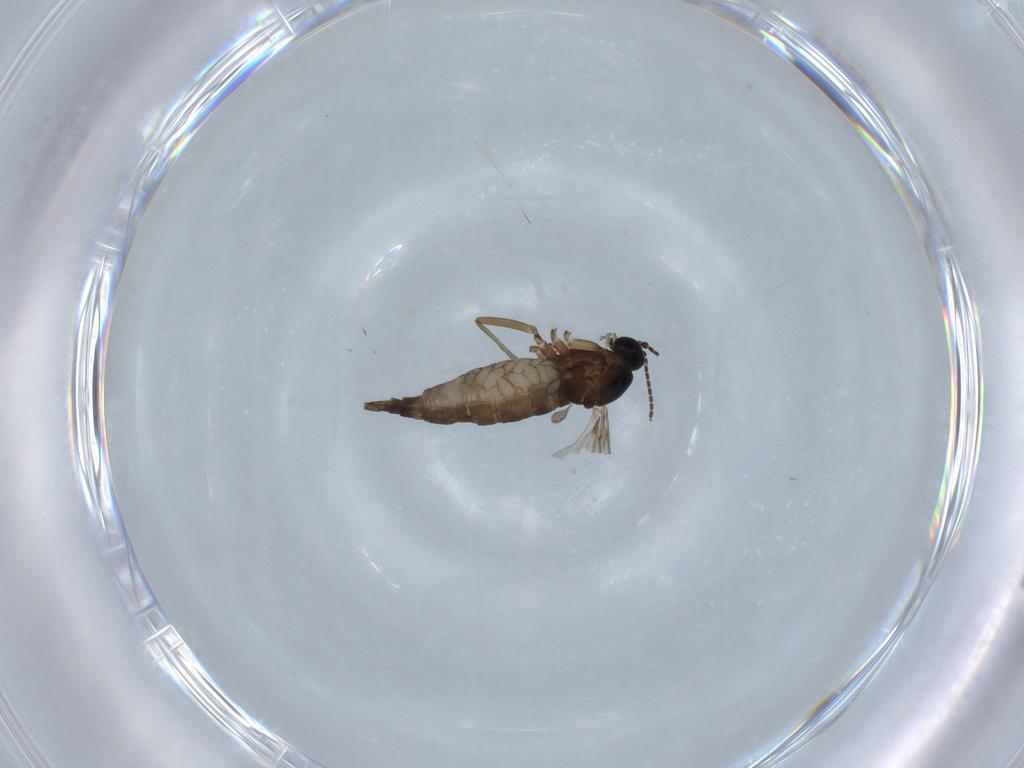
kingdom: Animalia
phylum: Arthropoda
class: Insecta
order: Diptera
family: Sciaridae
